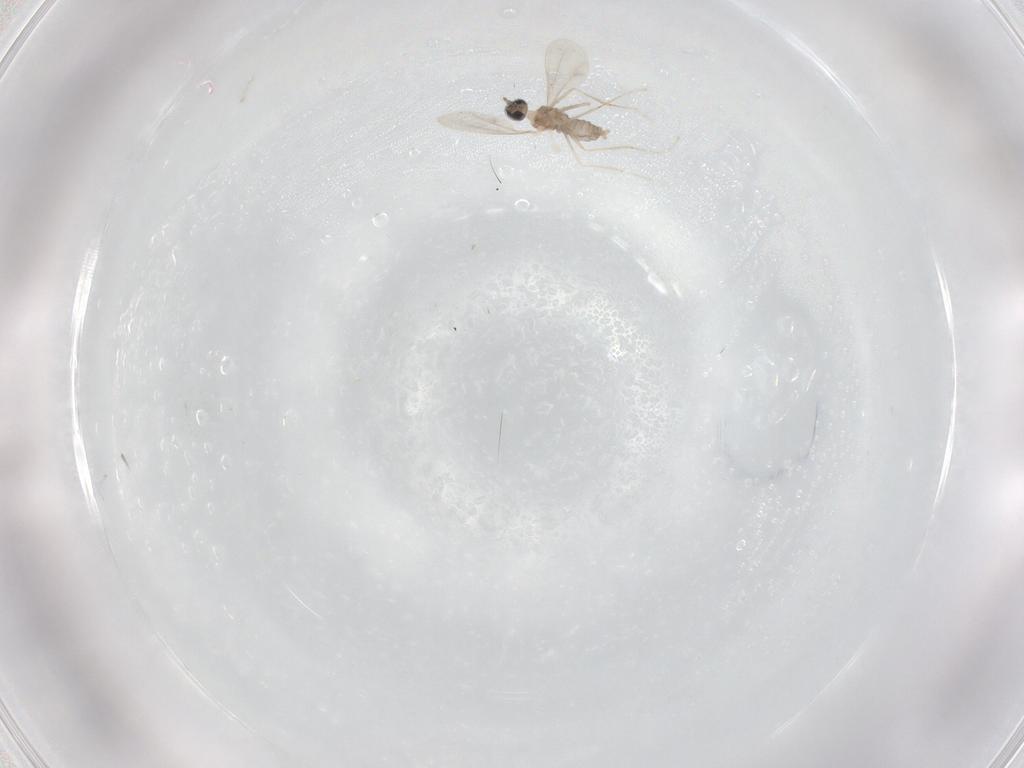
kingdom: Animalia
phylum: Arthropoda
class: Insecta
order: Diptera
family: Cecidomyiidae
